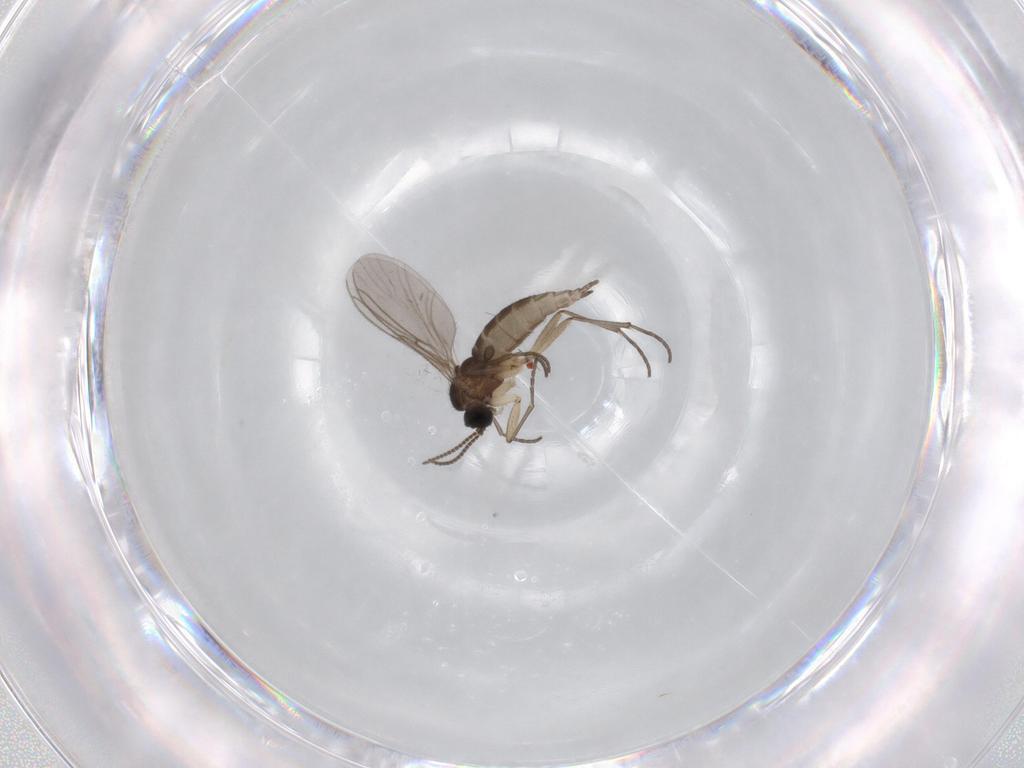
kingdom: Animalia
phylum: Arthropoda
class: Insecta
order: Diptera
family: Sciaridae
